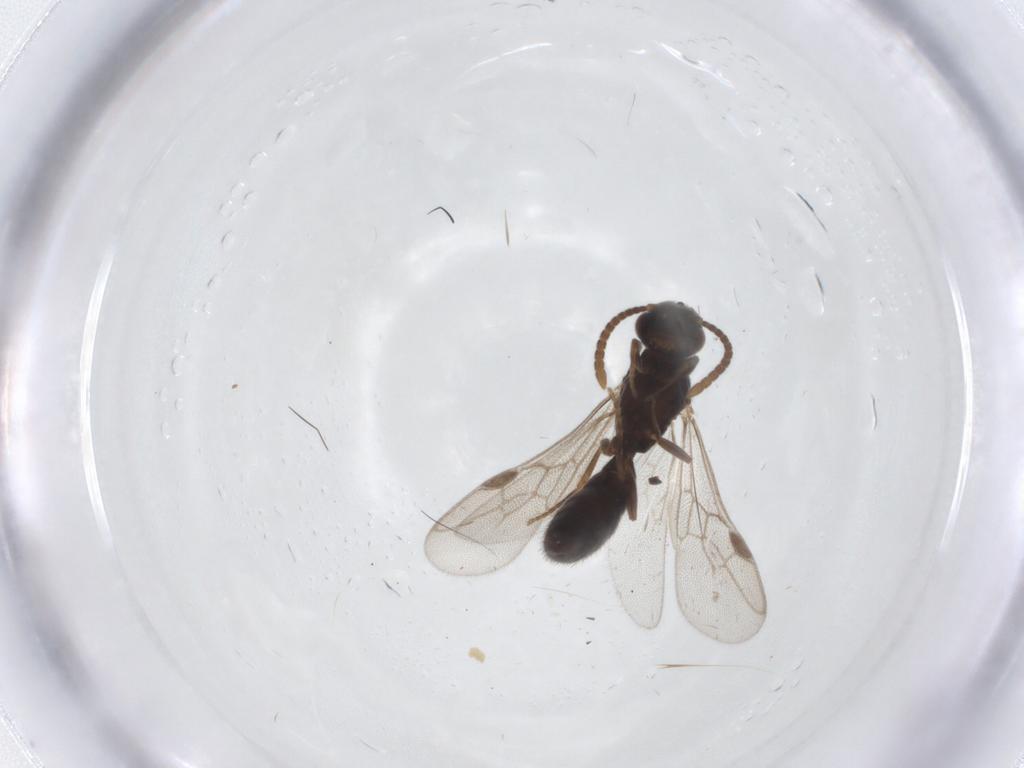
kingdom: Animalia
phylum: Arthropoda
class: Insecta
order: Hymenoptera
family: Formicidae
